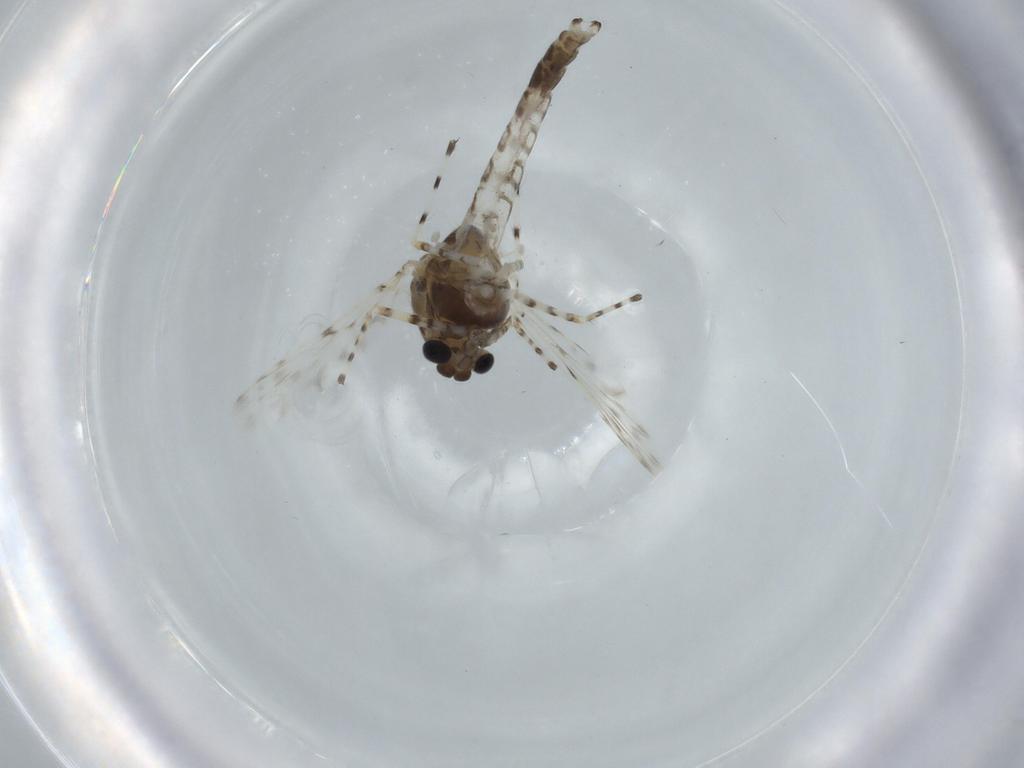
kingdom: Animalia
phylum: Arthropoda
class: Insecta
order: Diptera
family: Chironomidae
